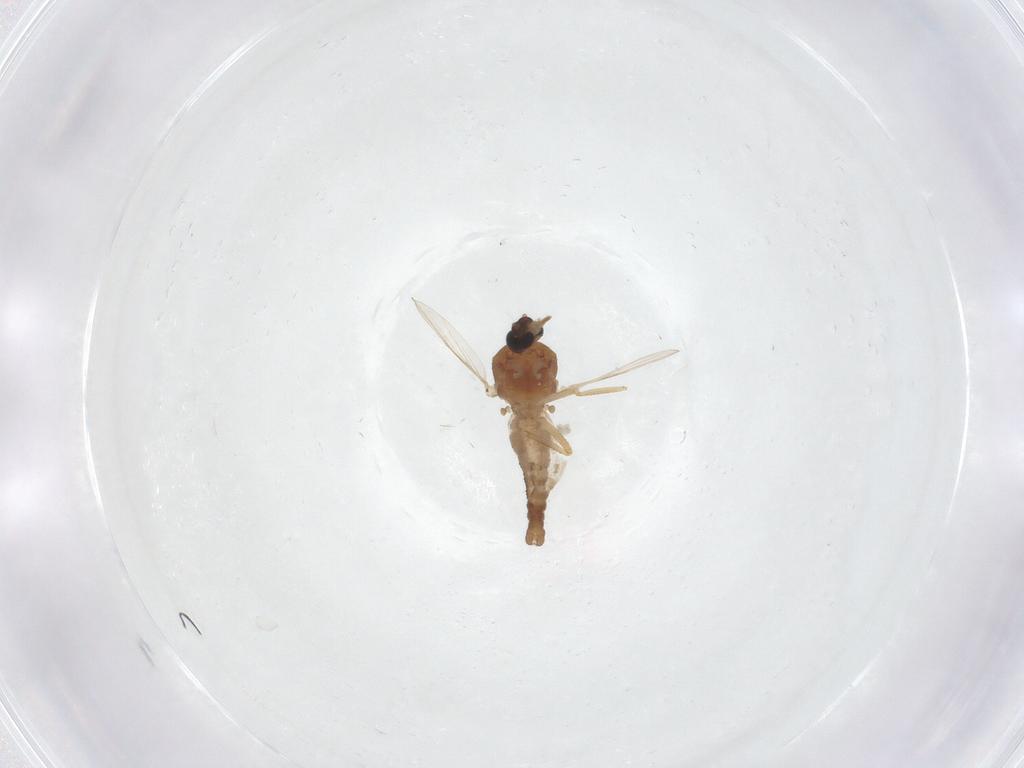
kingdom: Animalia
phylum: Arthropoda
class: Insecta
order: Diptera
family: Ceratopogonidae
